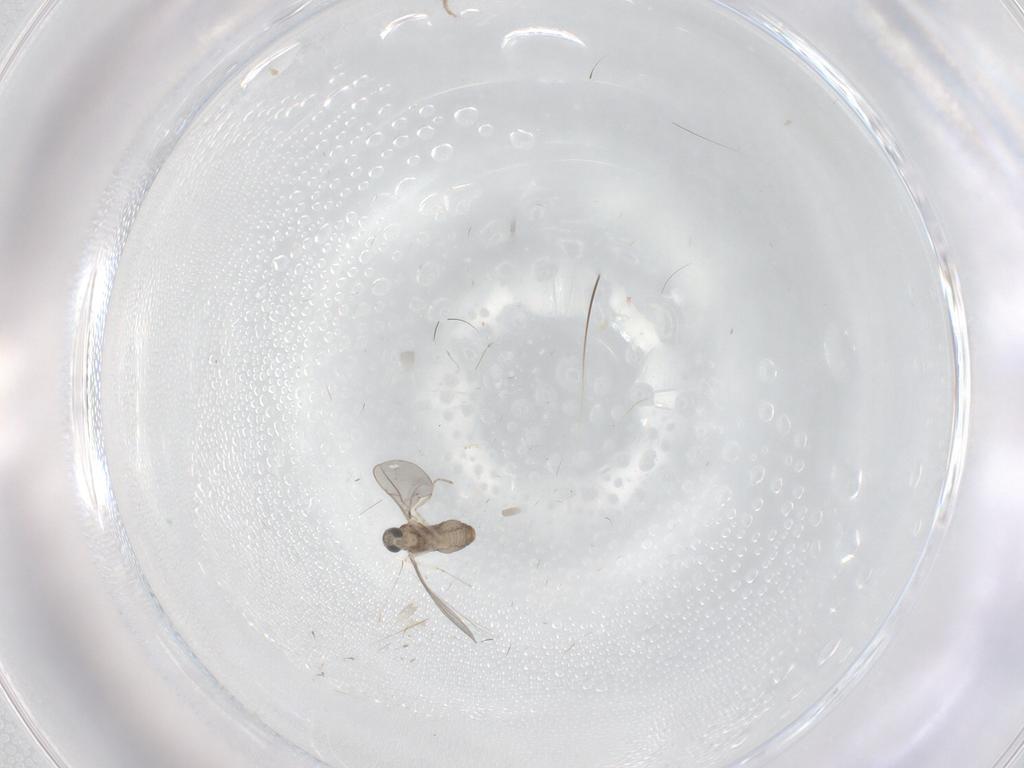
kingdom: Animalia
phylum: Arthropoda
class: Insecta
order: Diptera
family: Cecidomyiidae
